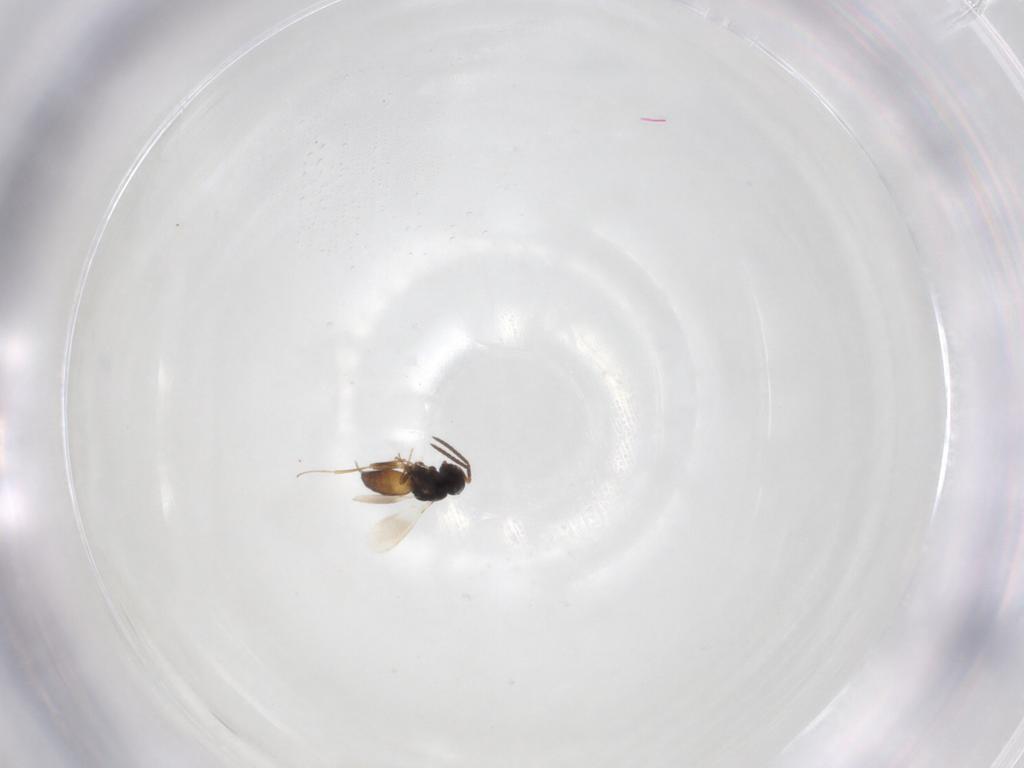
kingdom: Animalia
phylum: Arthropoda
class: Insecta
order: Hymenoptera
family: Scelionidae
